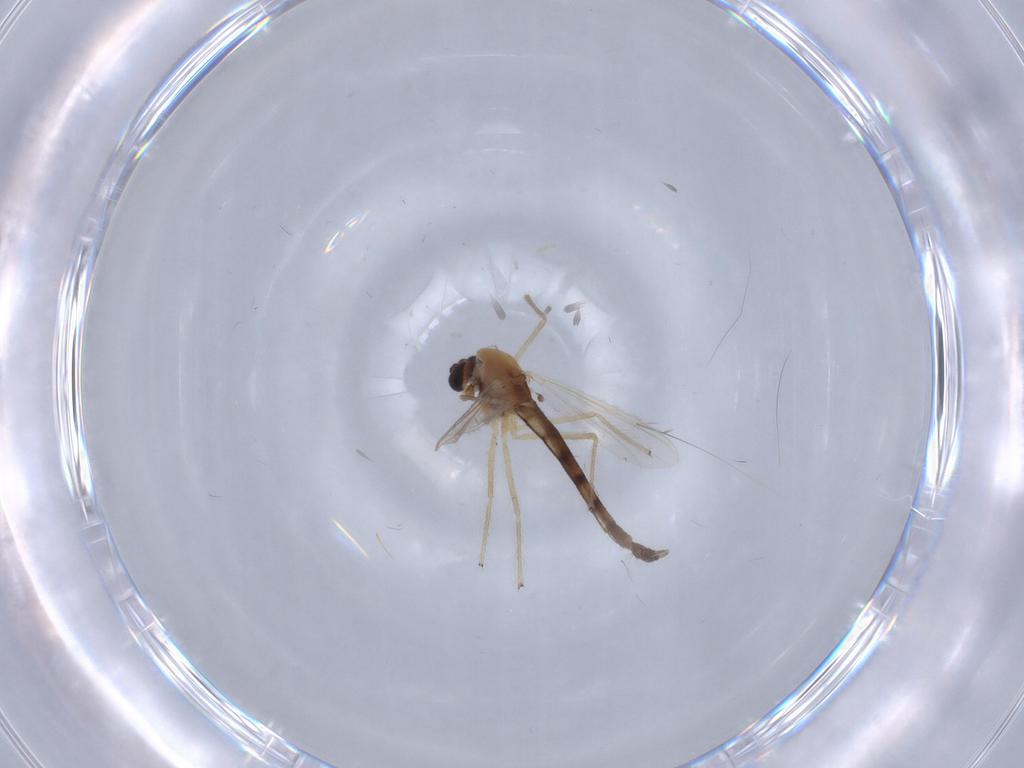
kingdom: Animalia
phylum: Arthropoda
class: Insecta
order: Diptera
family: Chironomidae
